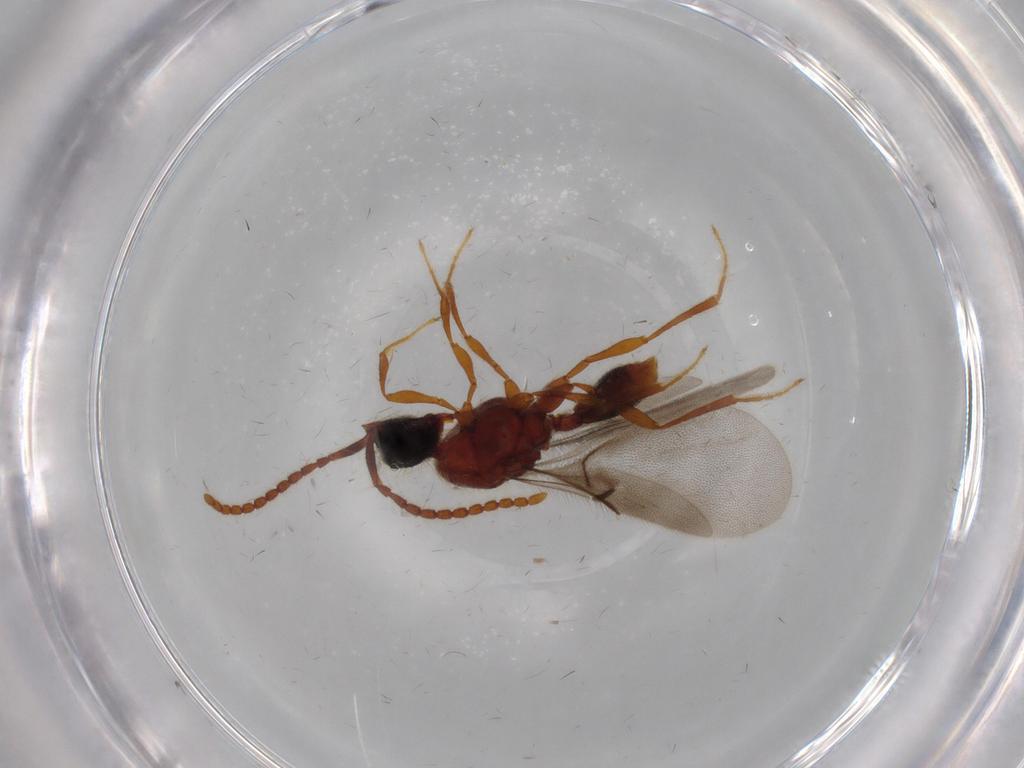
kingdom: Animalia
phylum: Arthropoda
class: Insecta
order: Hymenoptera
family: Diapriidae
